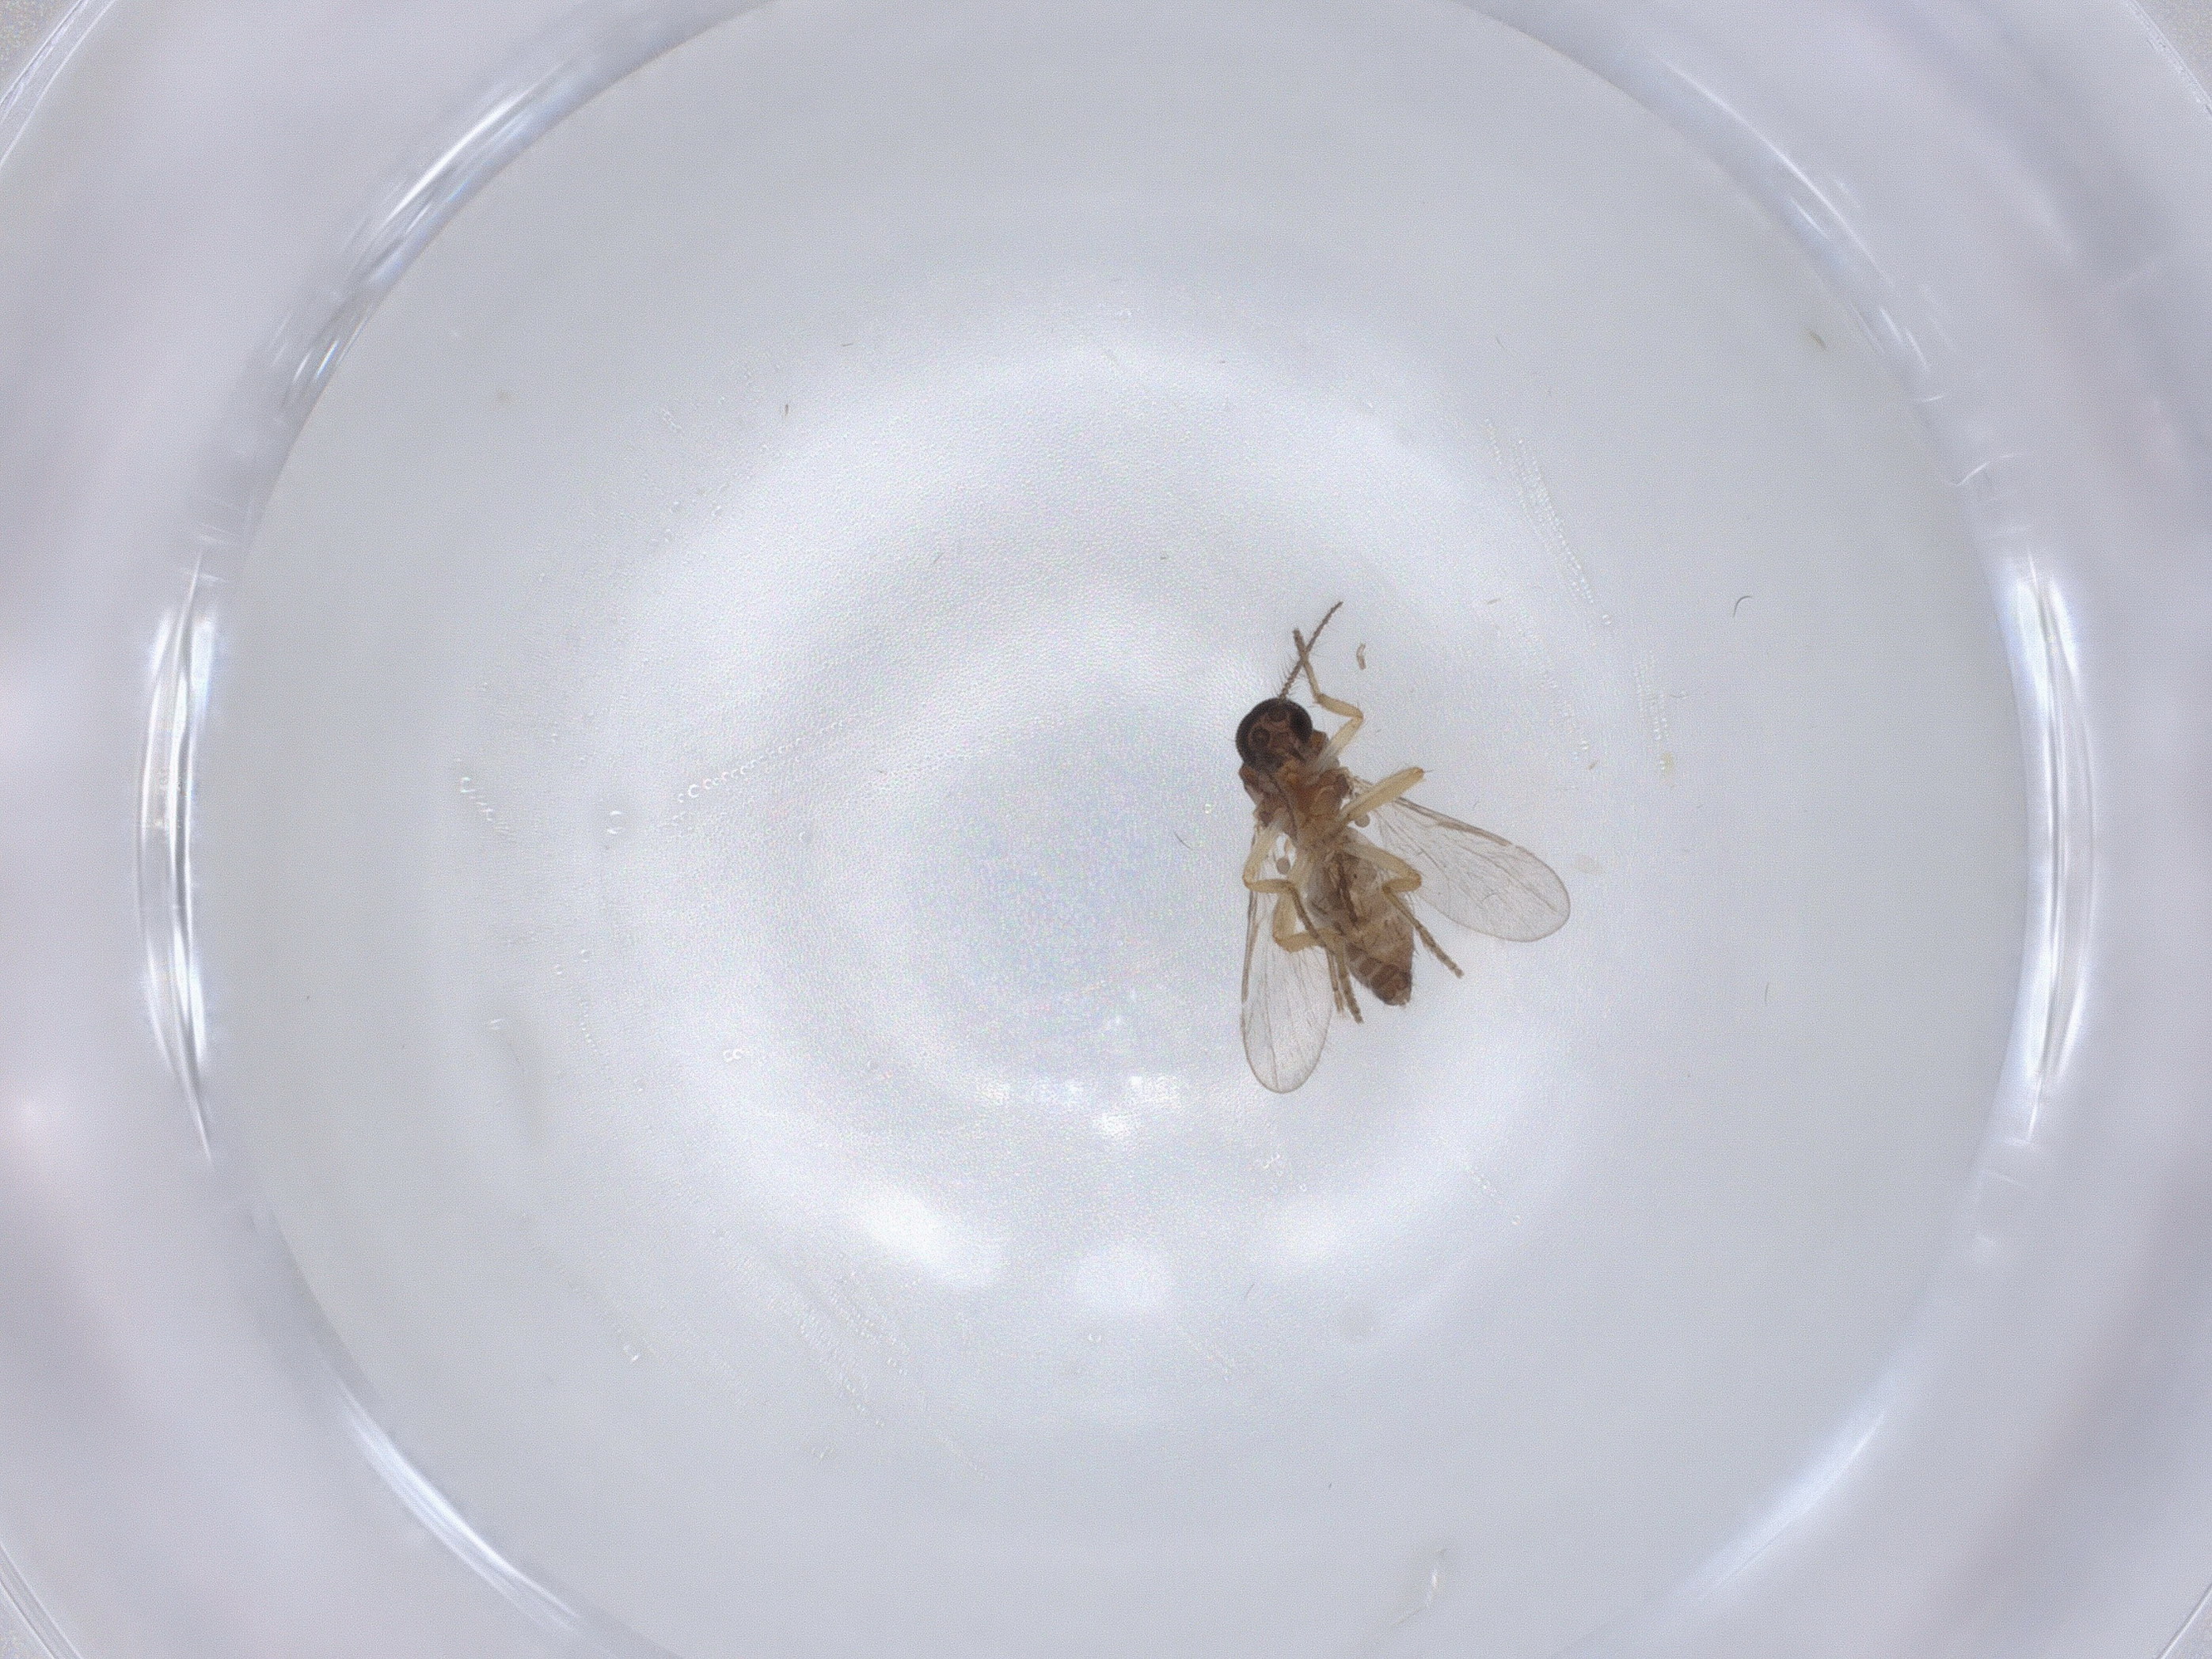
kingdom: Animalia
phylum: Arthropoda
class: Insecta
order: Diptera
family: Ceratopogonidae
